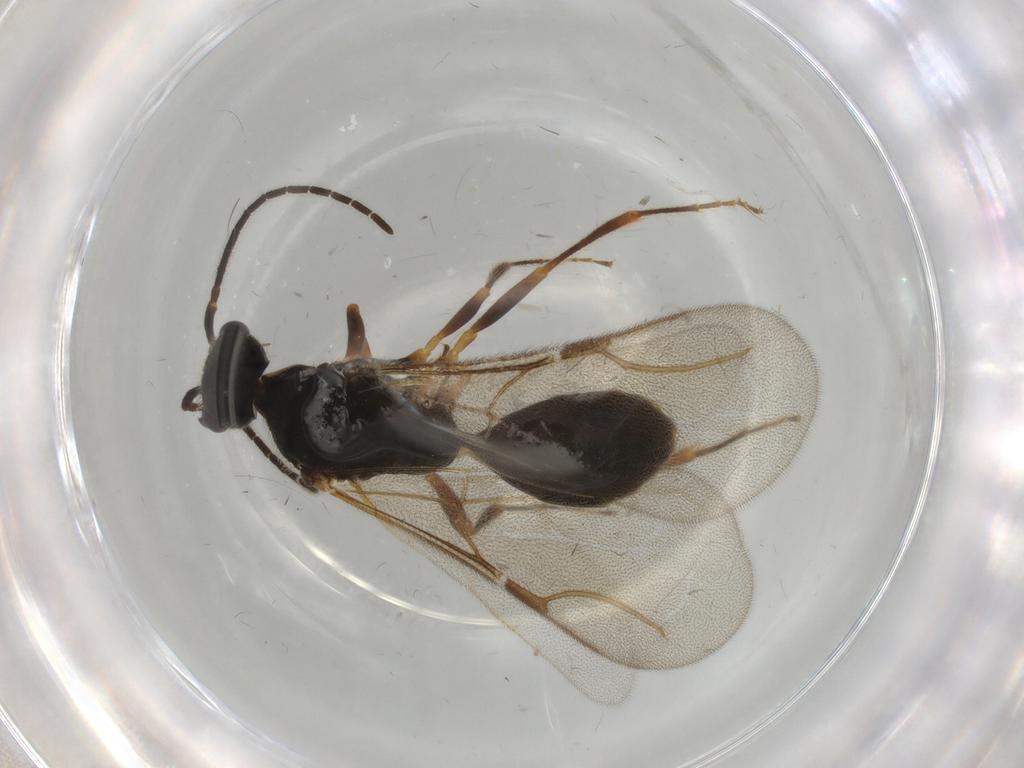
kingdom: Animalia
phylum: Arthropoda
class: Insecta
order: Hymenoptera
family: Bethylidae
